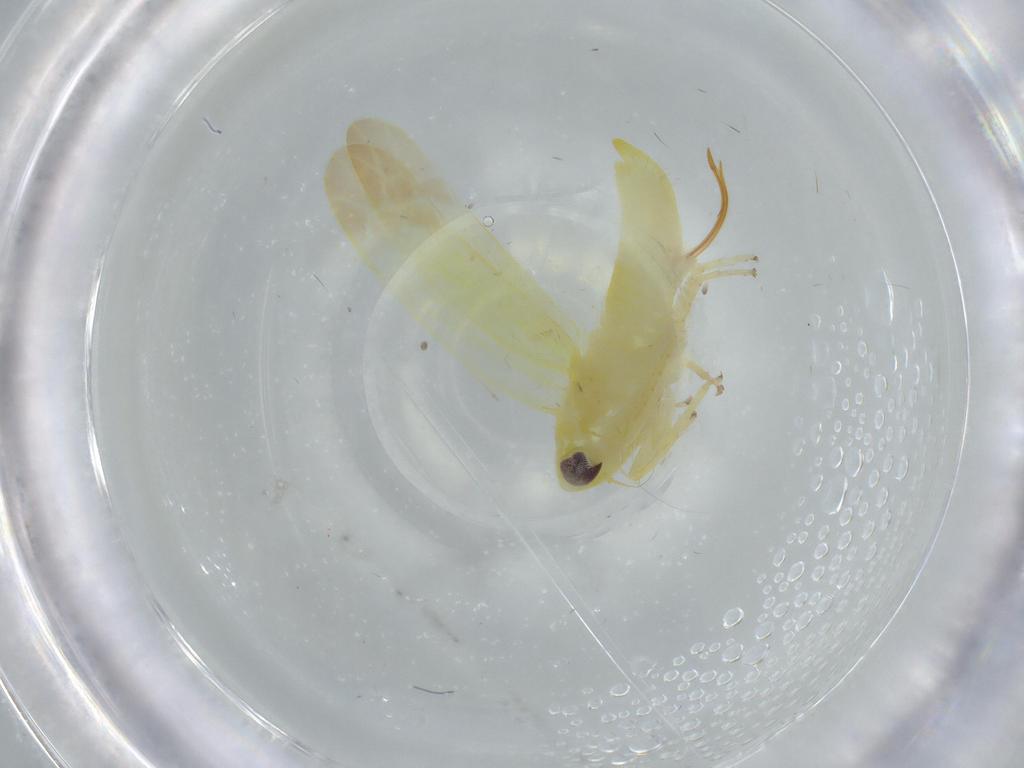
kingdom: Animalia
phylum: Arthropoda
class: Insecta
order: Hemiptera
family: Cicadellidae
